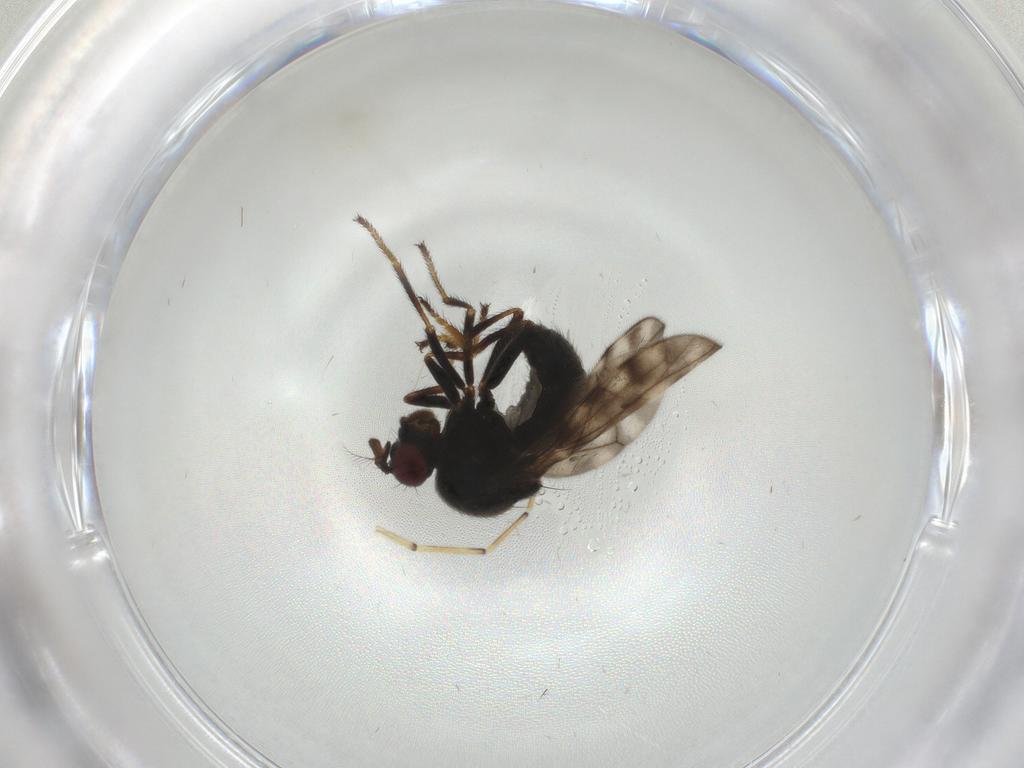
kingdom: Animalia
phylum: Arthropoda
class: Insecta
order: Diptera
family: Ephydridae
